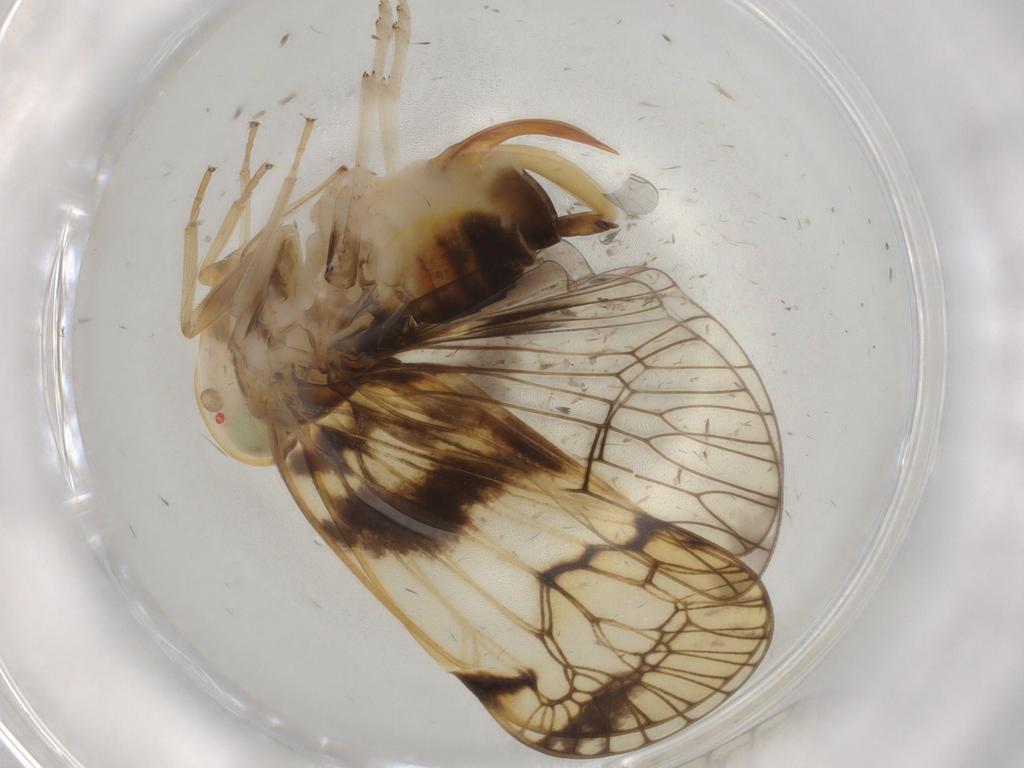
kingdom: Animalia
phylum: Arthropoda
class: Insecta
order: Hemiptera
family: Cixiidae
